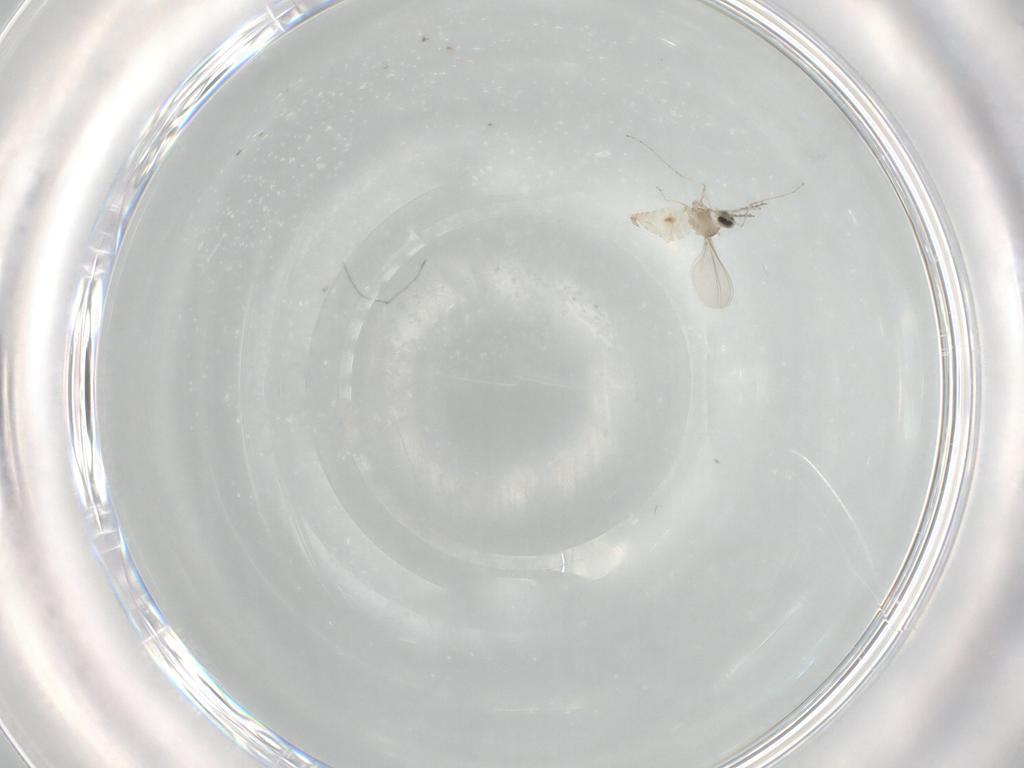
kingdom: Animalia
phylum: Arthropoda
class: Insecta
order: Diptera
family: Cecidomyiidae
